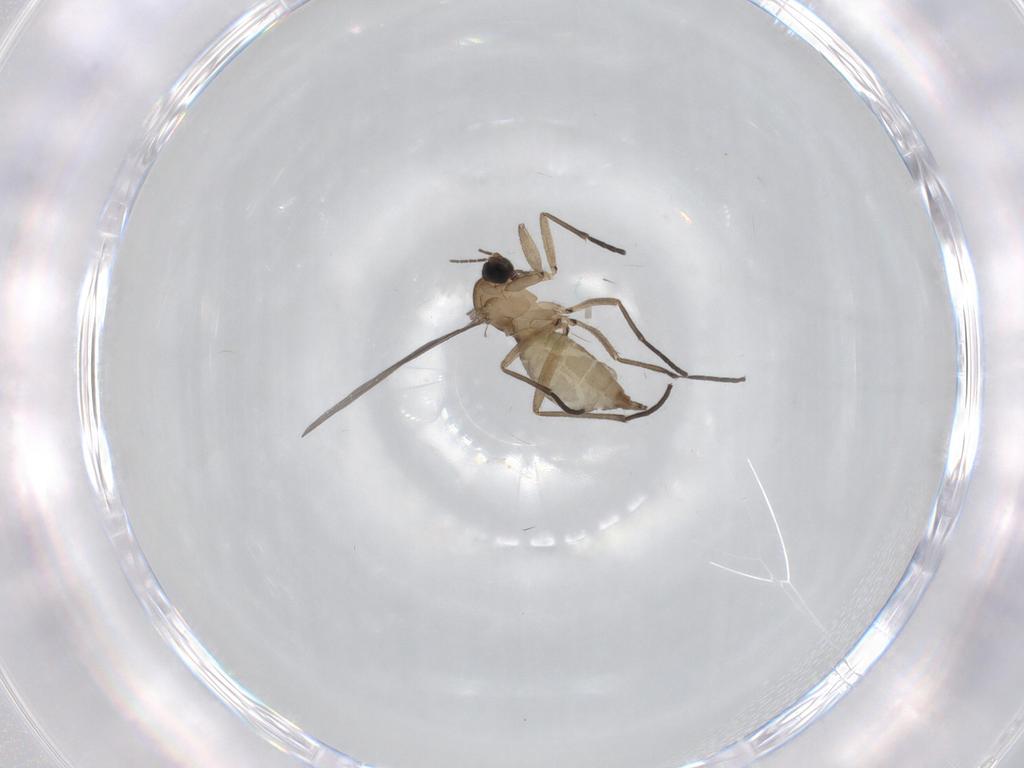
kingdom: Animalia
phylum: Arthropoda
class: Insecta
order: Diptera
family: Sciaridae
